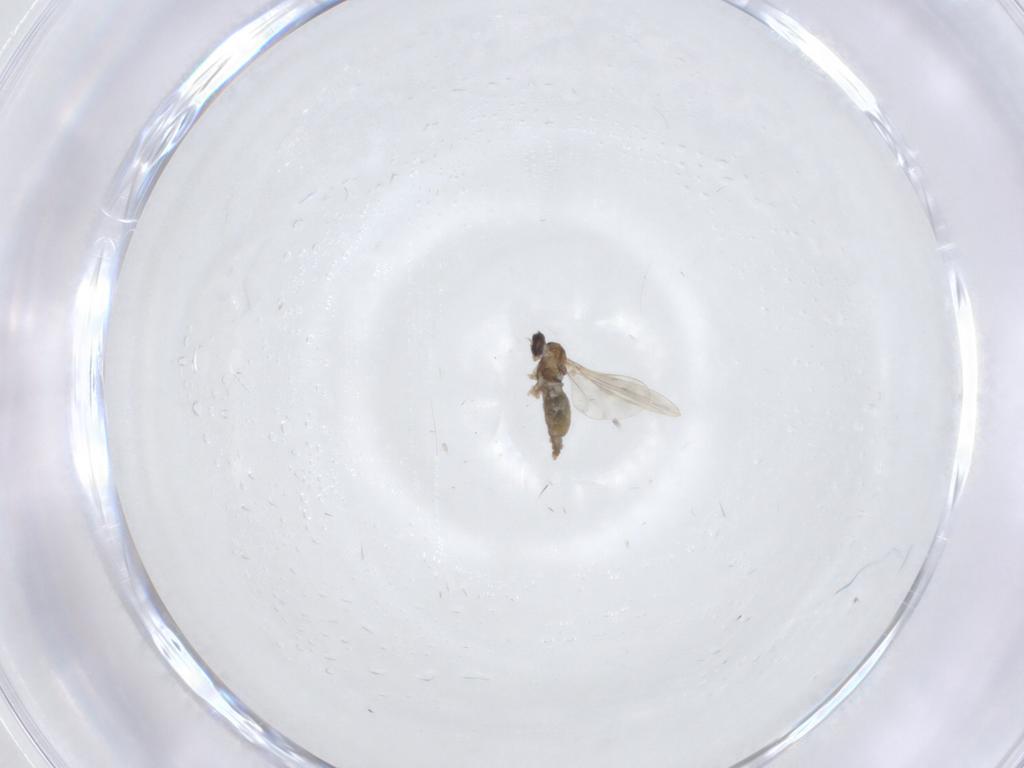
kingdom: Animalia
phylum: Arthropoda
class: Insecta
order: Diptera
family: Cecidomyiidae
